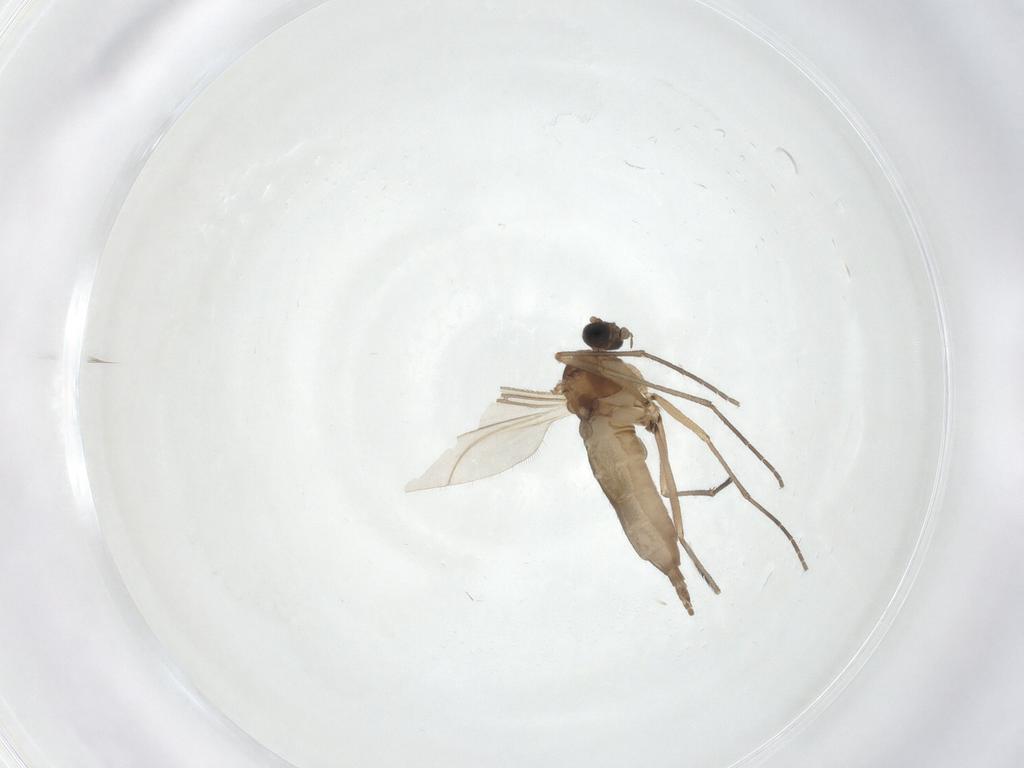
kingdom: Animalia
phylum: Arthropoda
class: Insecta
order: Diptera
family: Sciaridae
